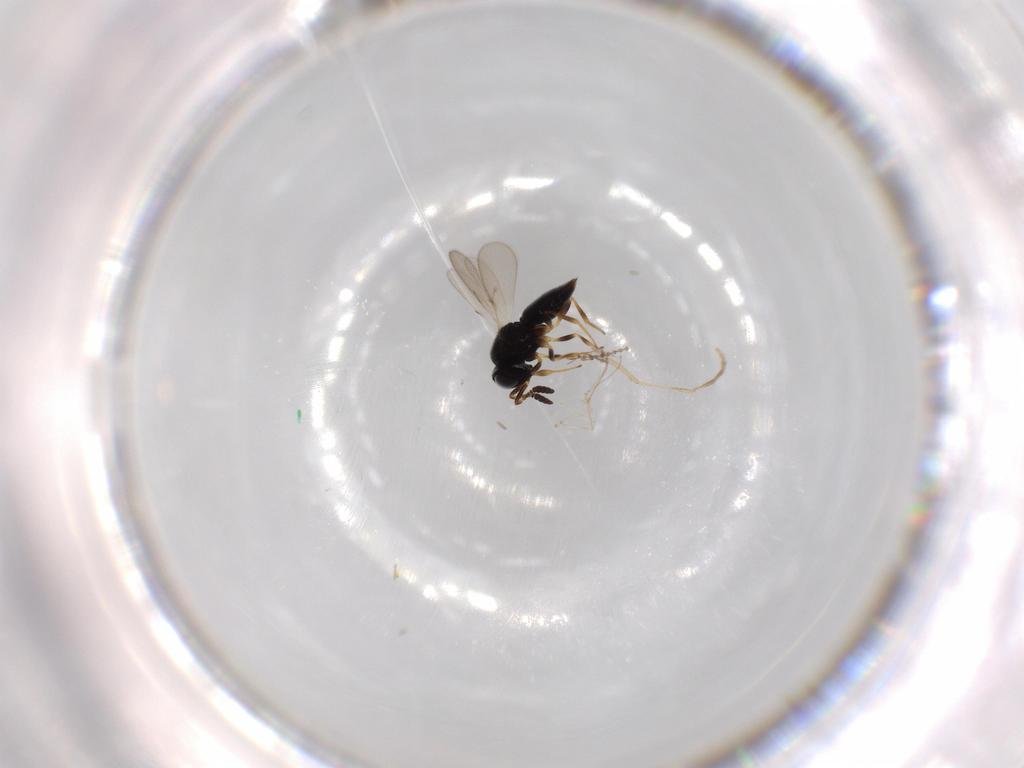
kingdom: Animalia
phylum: Arthropoda
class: Insecta
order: Hymenoptera
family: Scelionidae
